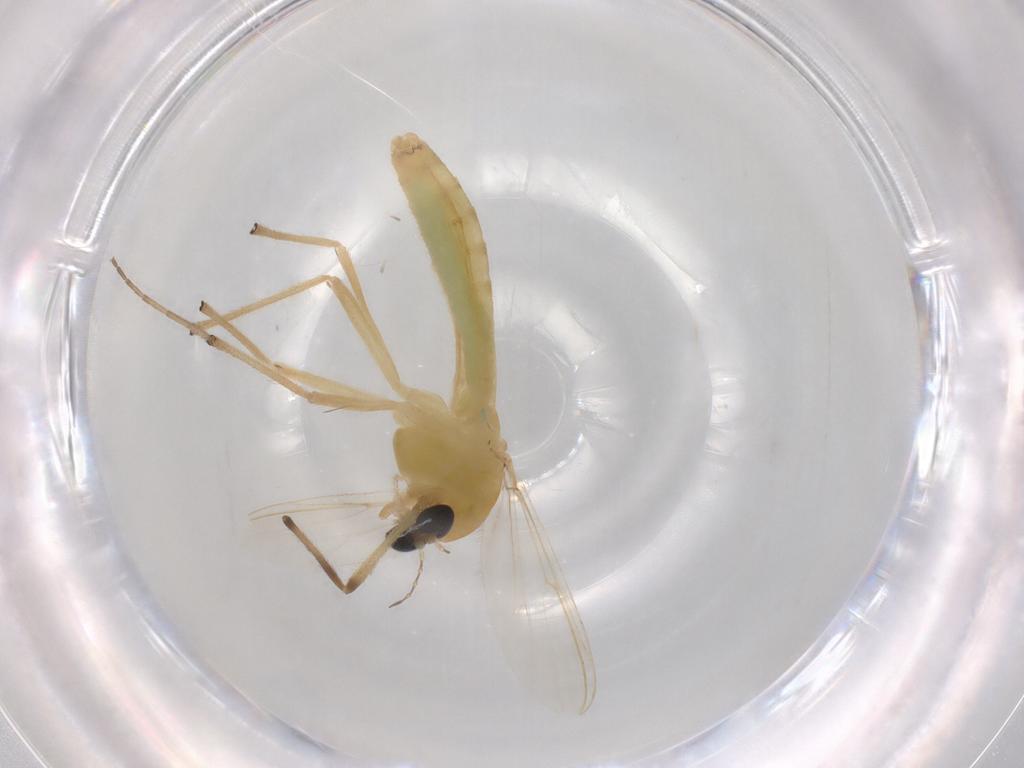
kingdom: Animalia
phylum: Arthropoda
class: Insecta
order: Diptera
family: Chironomidae
